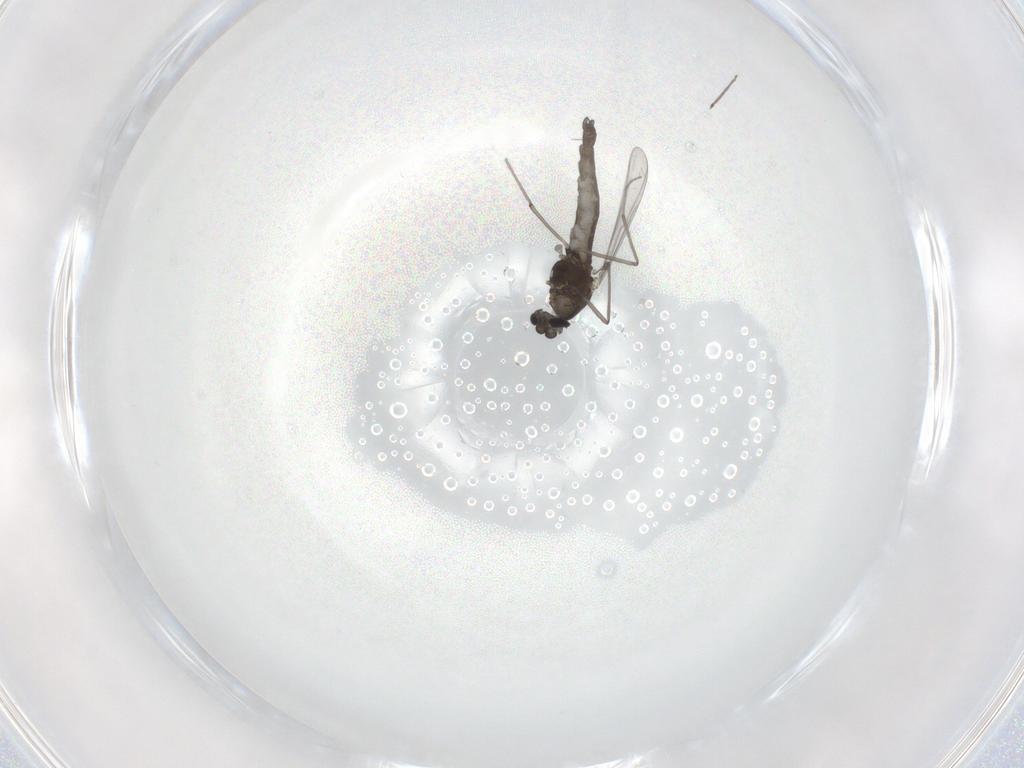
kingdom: Animalia
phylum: Arthropoda
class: Insecta
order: Diptera
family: Chironomidae
